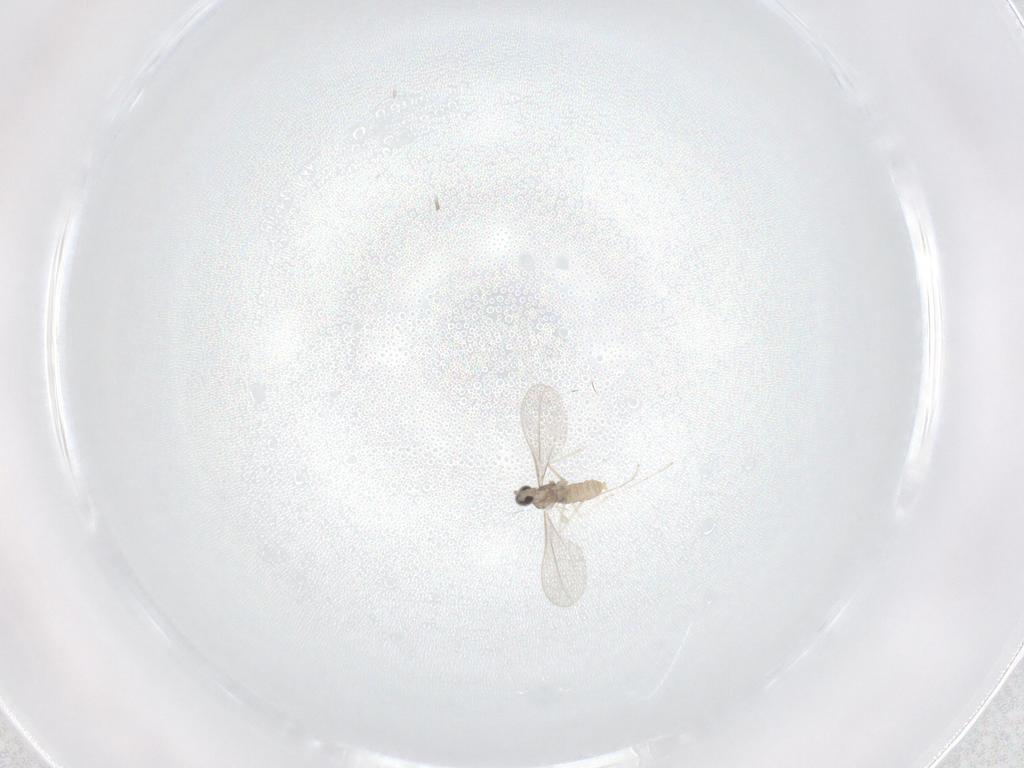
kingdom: Animalia
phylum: Arthropoda
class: Insecta
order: Diptera
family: Cecidomyiidae
